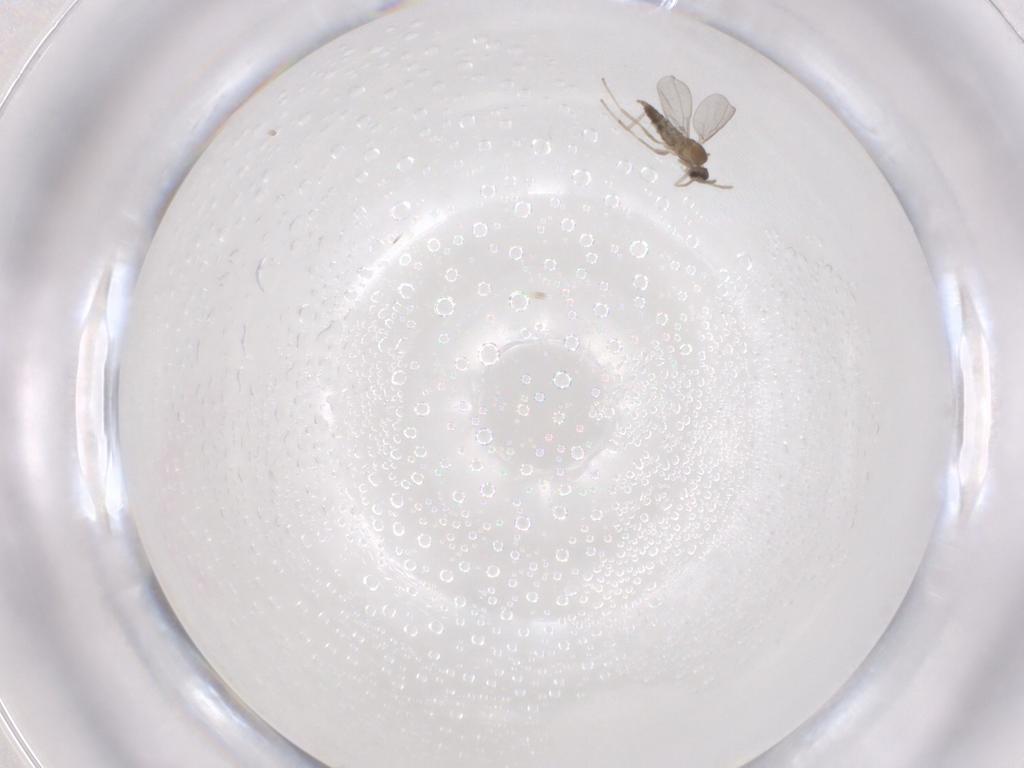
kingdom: Animalia
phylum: Arthropoda
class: Insecta
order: Diptera
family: Cecidomyiidae
